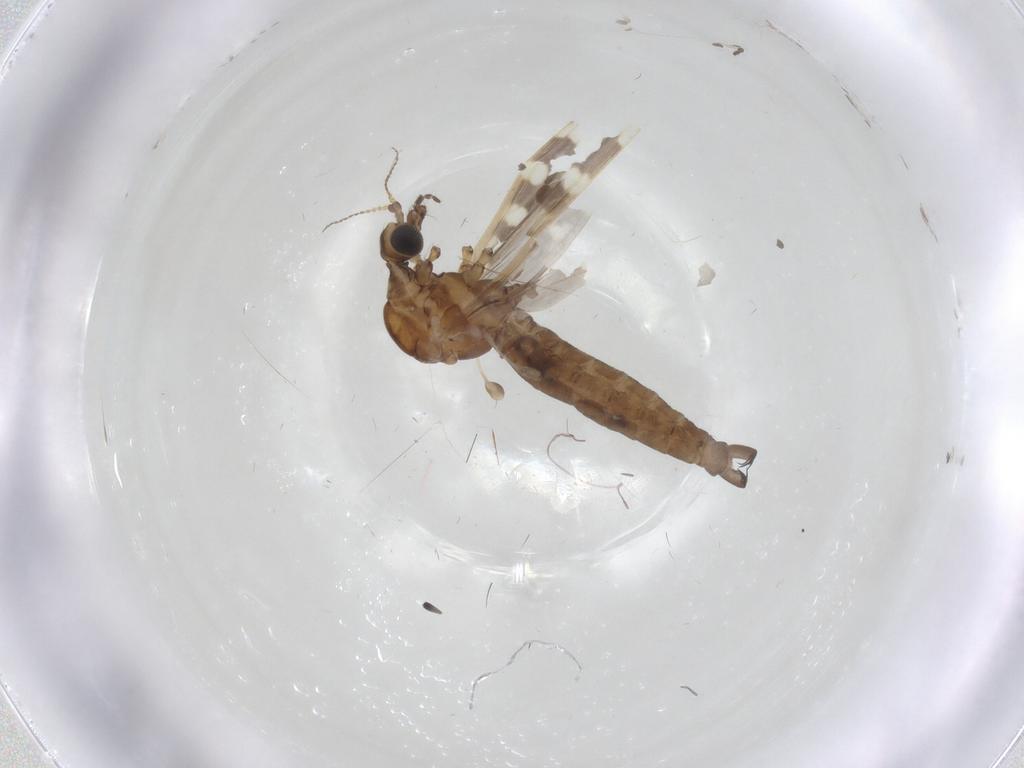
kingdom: Animalia
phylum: Arthropoda
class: Insecta
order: Diptera
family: Limoniidae
